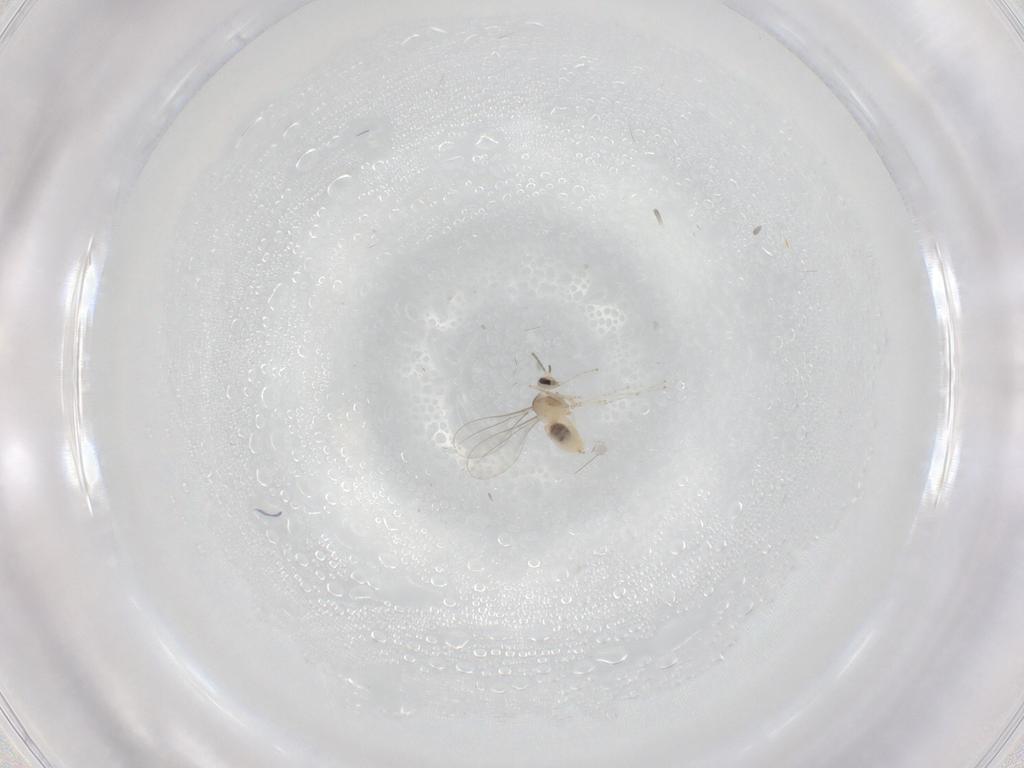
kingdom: Animalia
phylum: Arthropoda
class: Insecta
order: Diptera
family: Cecidomyiidae
